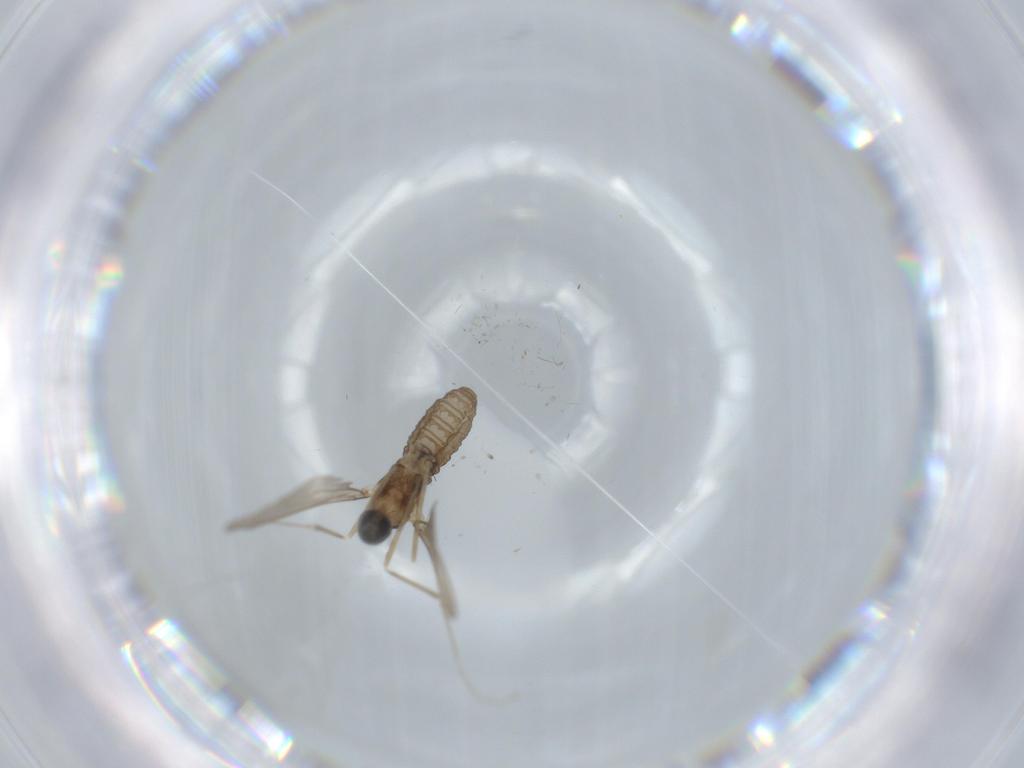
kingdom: Animalia
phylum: Arthropoda
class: Insecta
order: Diptera
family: Cecidomyiidae
